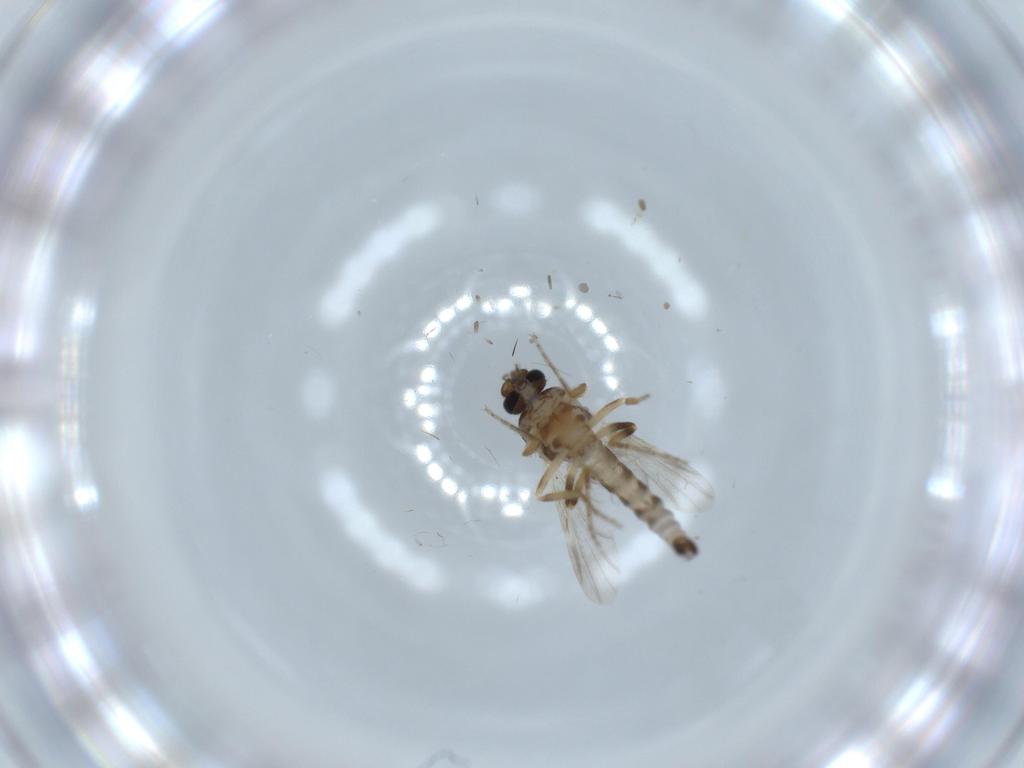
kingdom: Animalia
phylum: Arthropoda
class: Insecta
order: Diptera
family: Ceratopogonidae
